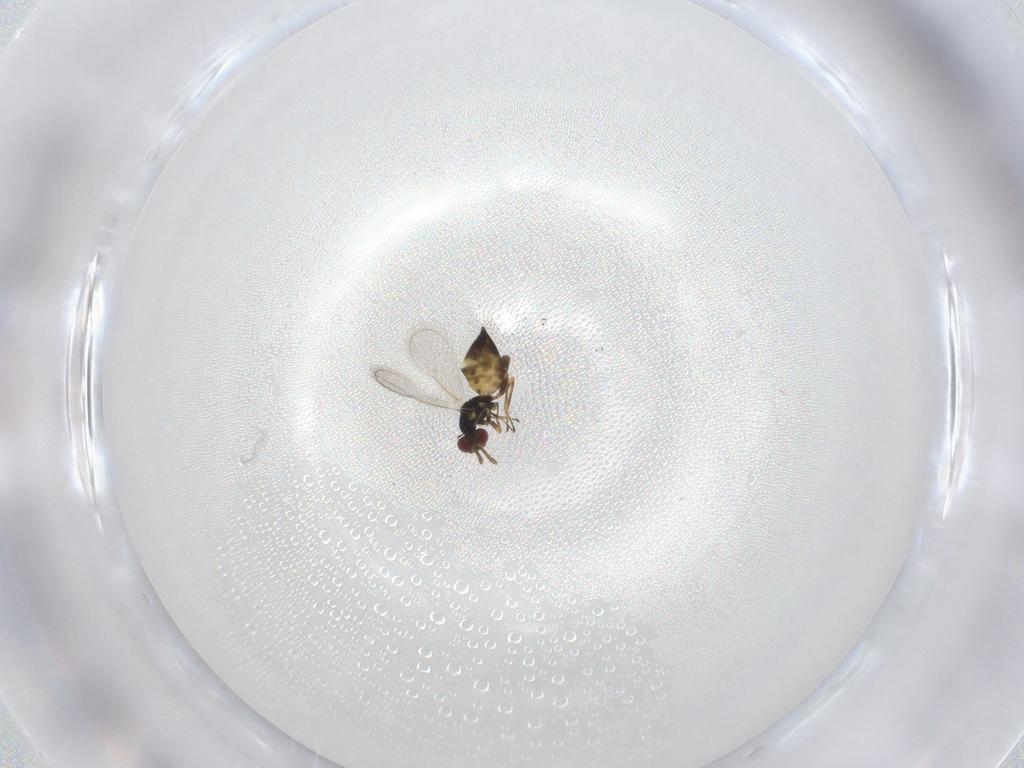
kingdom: Animalia
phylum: Arthropoda
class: Insecta
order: Hymenoptera
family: Eulophidae
